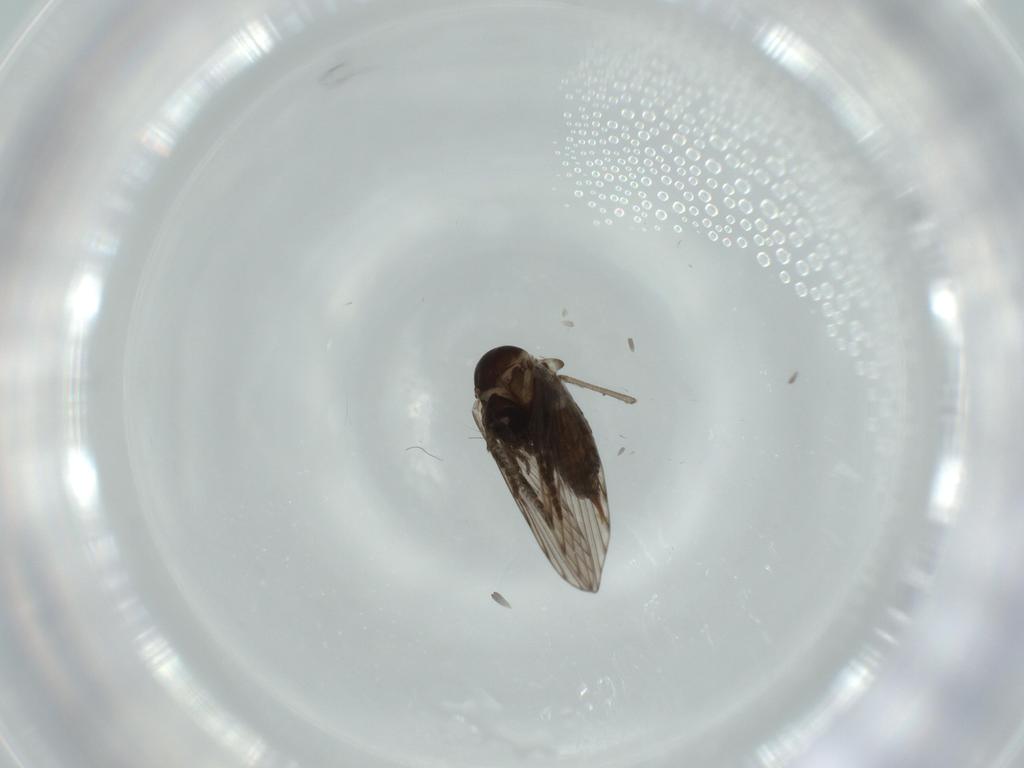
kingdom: Animalia
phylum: Arthropoda
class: Insecta
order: Diptera
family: Psychodidae
